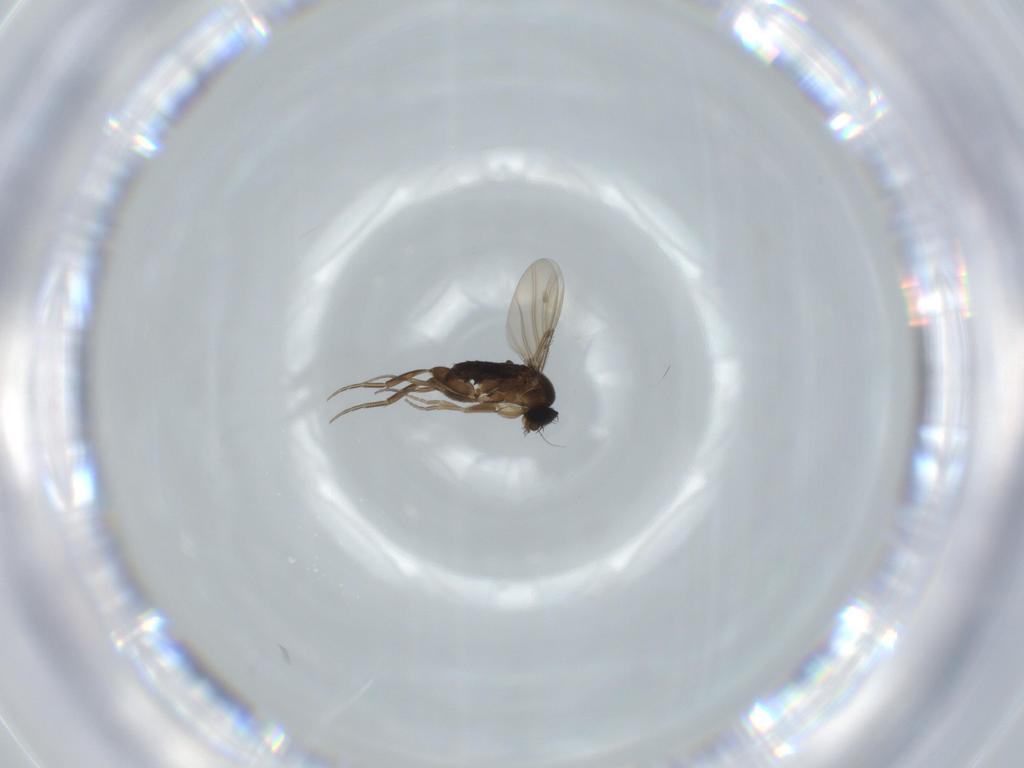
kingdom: Animalia
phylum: Arthropoda
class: Insecta
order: Diptera
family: Phoridae
